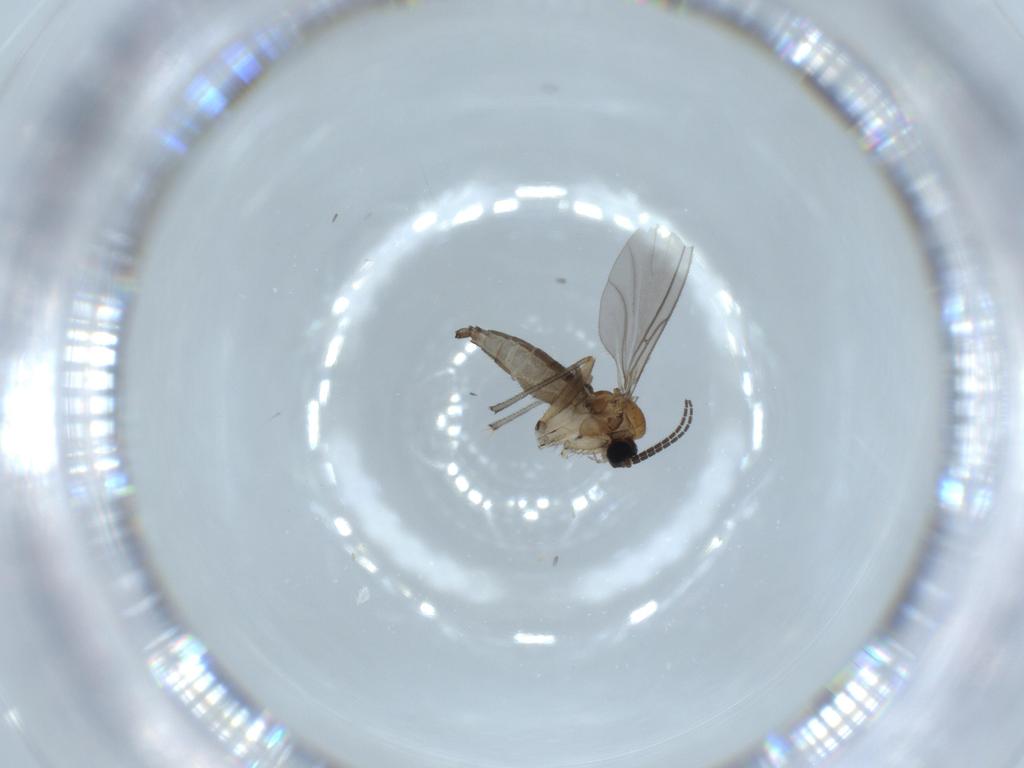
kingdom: Animalia
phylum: Arthropoda
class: Insecta
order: Diptera
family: Sciaridae
